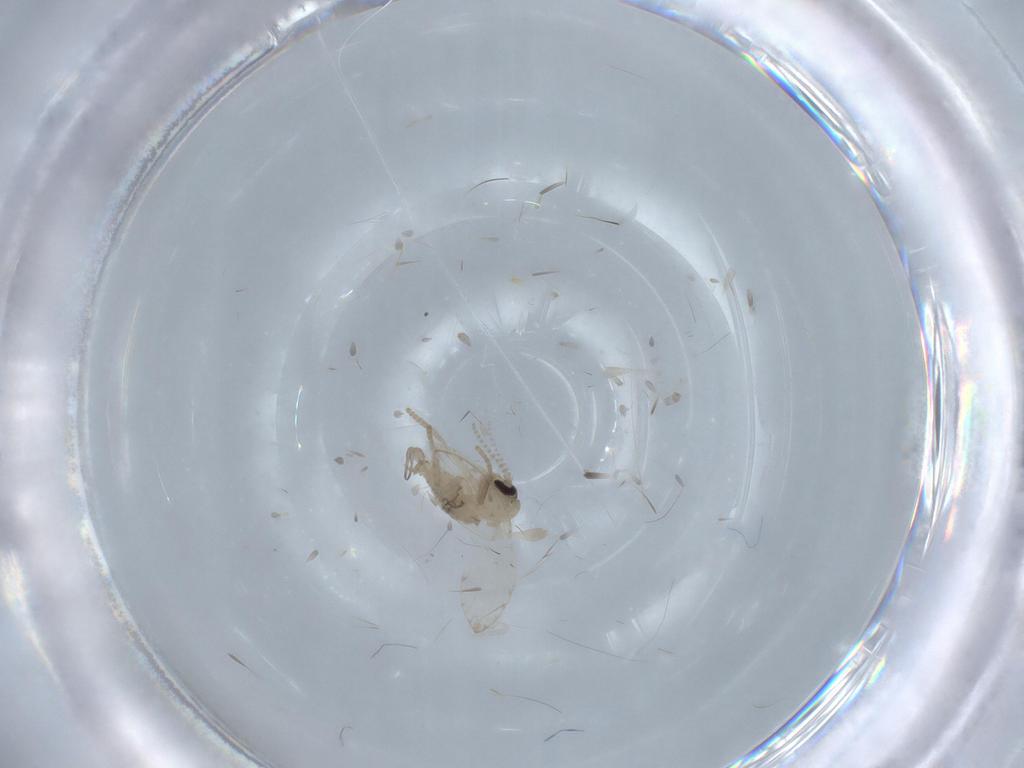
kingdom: Animalia
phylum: Arthropoda
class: Insecta
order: Diptera
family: Psychodidae
